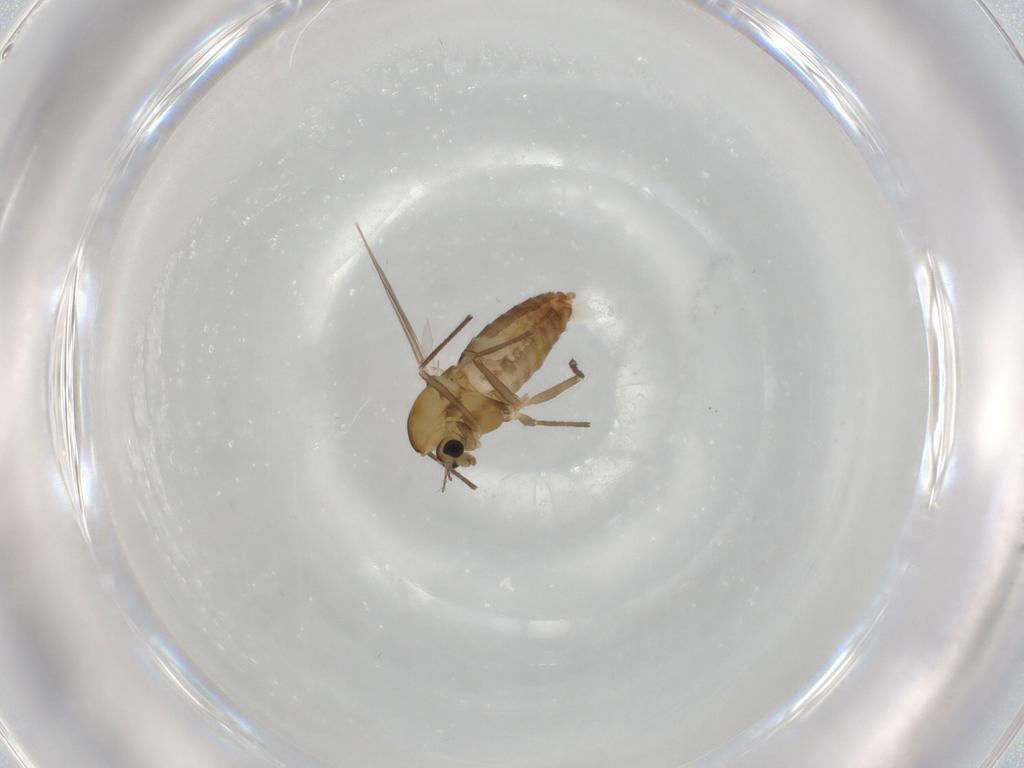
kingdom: Animalia
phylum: Arthropoda
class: Insecta
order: Diptera
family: Chironomidae
